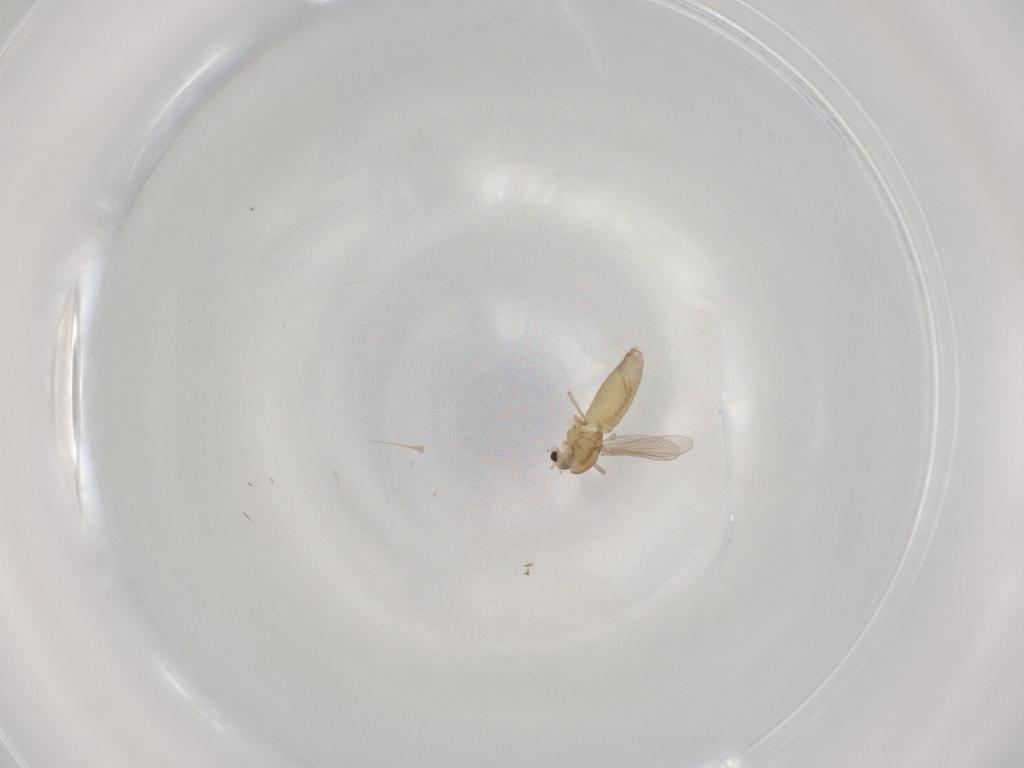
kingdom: Animalia
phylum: Arthropoda
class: Insecta
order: Diptera
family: Chironomidae
